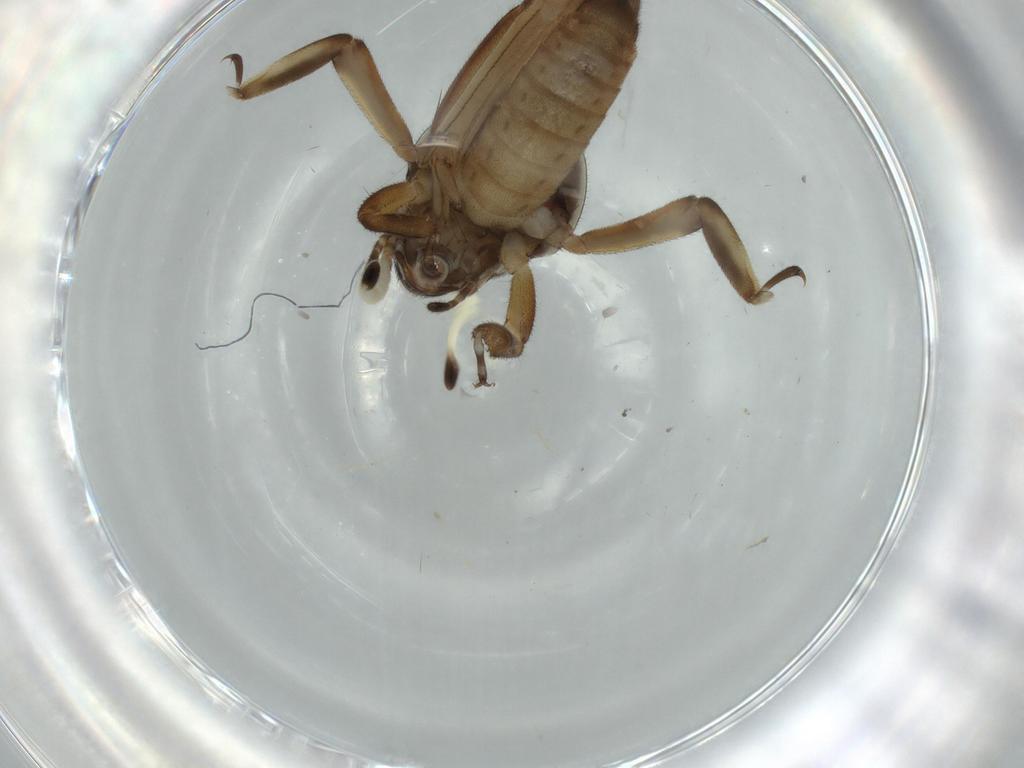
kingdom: Animalia
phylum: Arthropoda
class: Insecta
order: Orthoptera
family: Ripipterygidae
